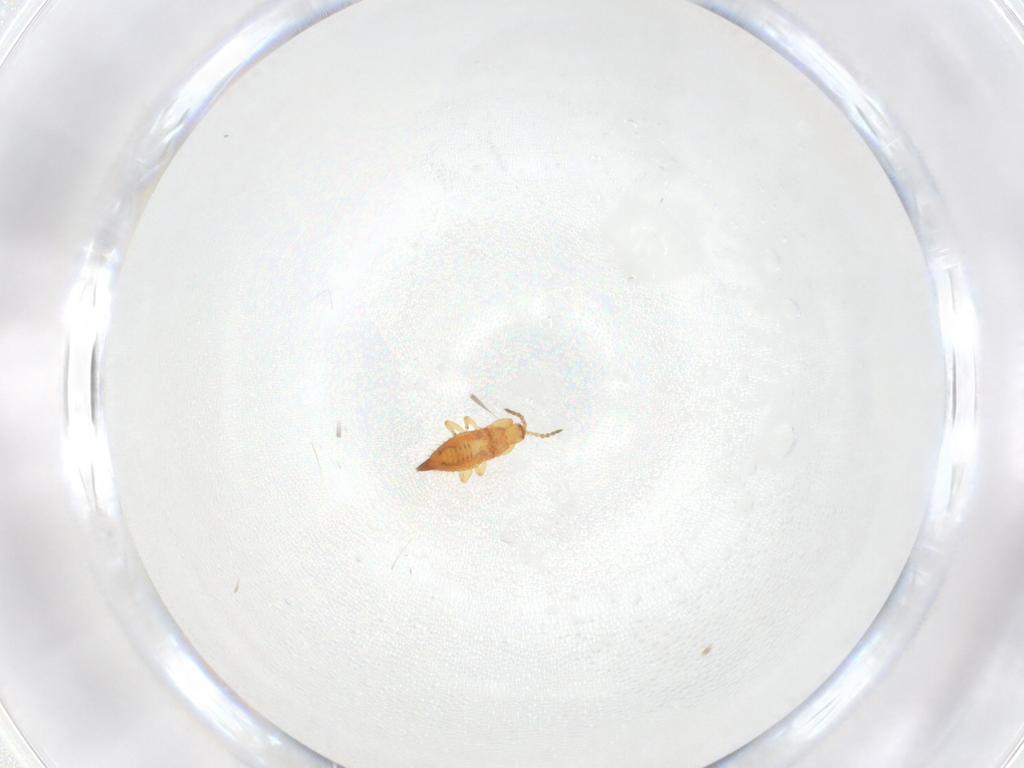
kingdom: Animalia
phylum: Arthropoda
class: Insecta
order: Thysanoptera
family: Phlaeothripidae
